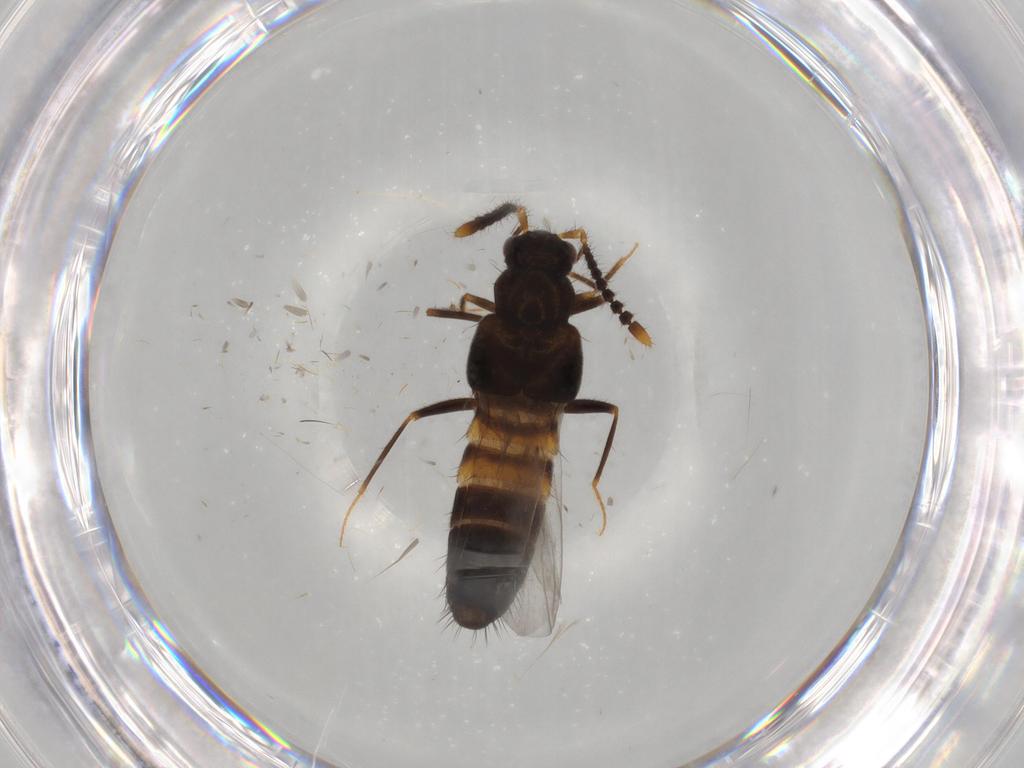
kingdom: Animalia
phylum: Arthropoda
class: Insecta
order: Coleoptera
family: Staphylinidae
